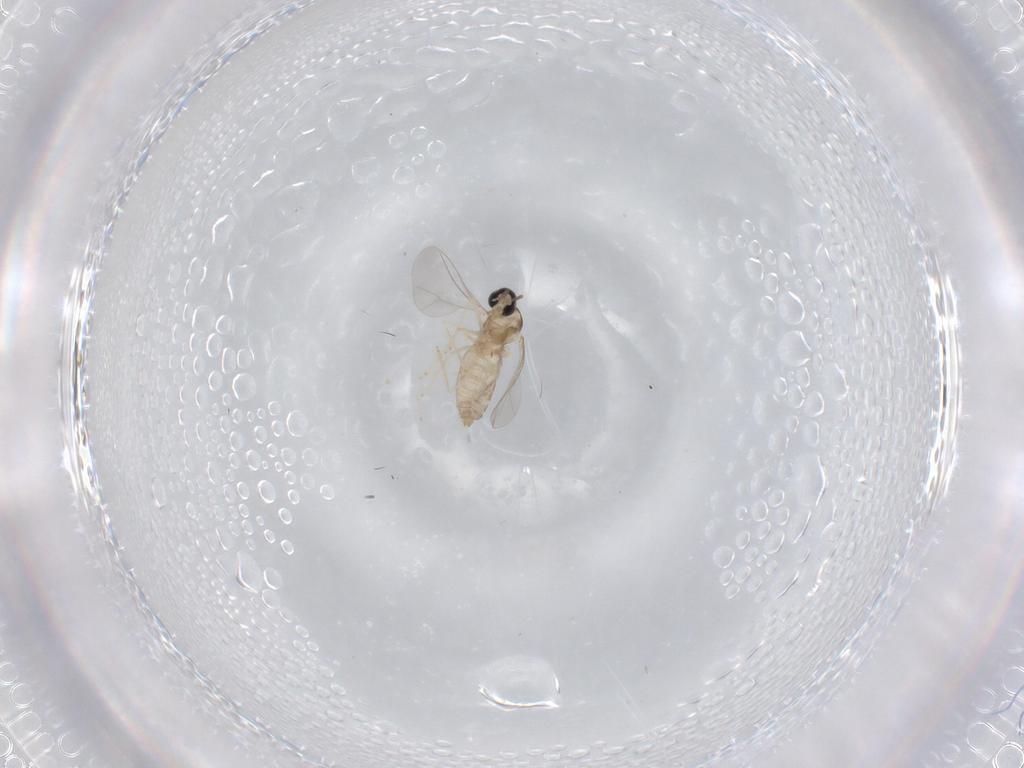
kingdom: Animalia
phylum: Arthropoda
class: Insecta
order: Diptera
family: Cecidomyiidae
